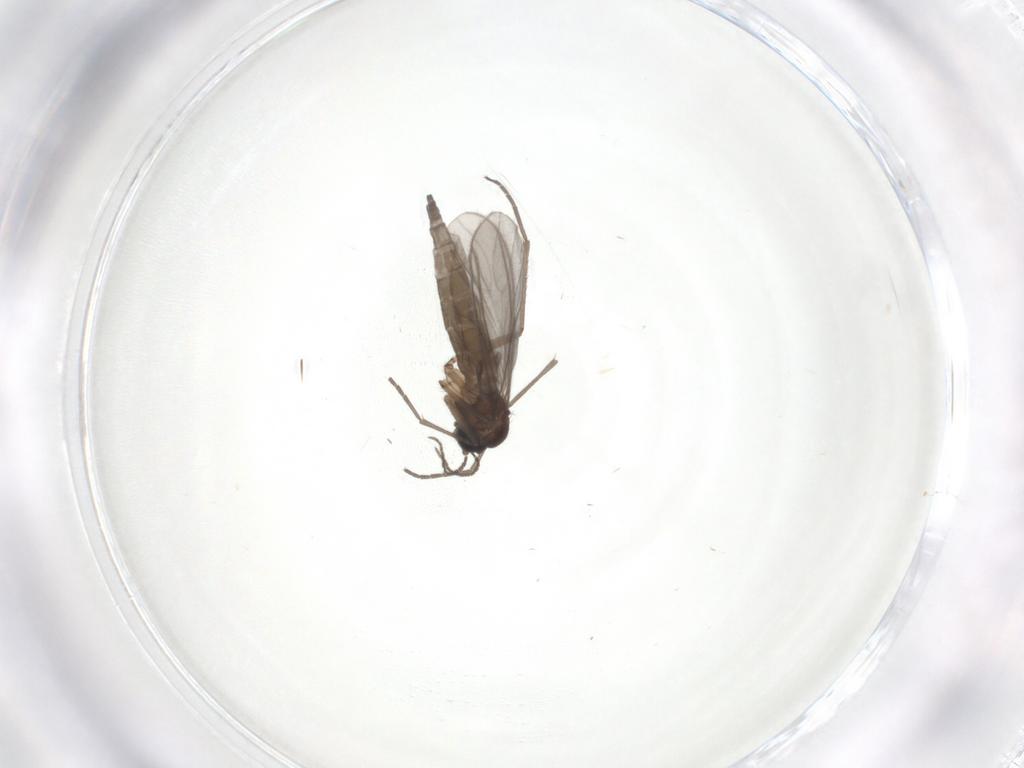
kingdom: Animalia
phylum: Arthropoda
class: Insecta
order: Diptera
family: Sciaridae
